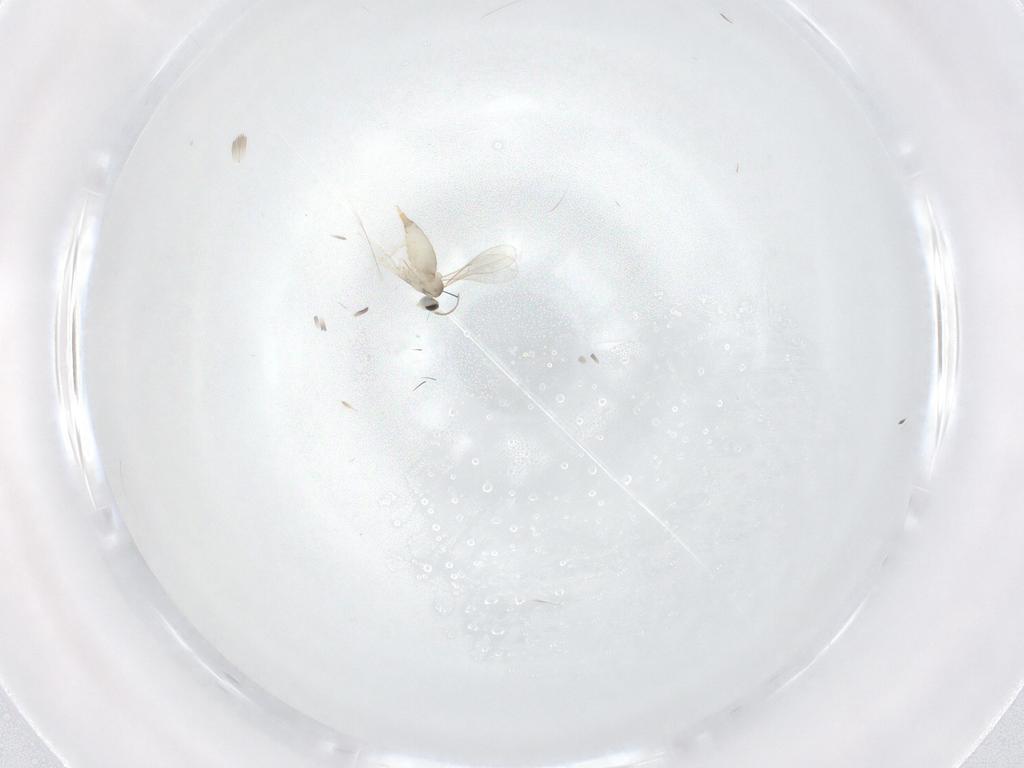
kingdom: Animalia
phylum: Arthropoda
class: Insecta
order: Diptera
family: Cecidomyiidae
